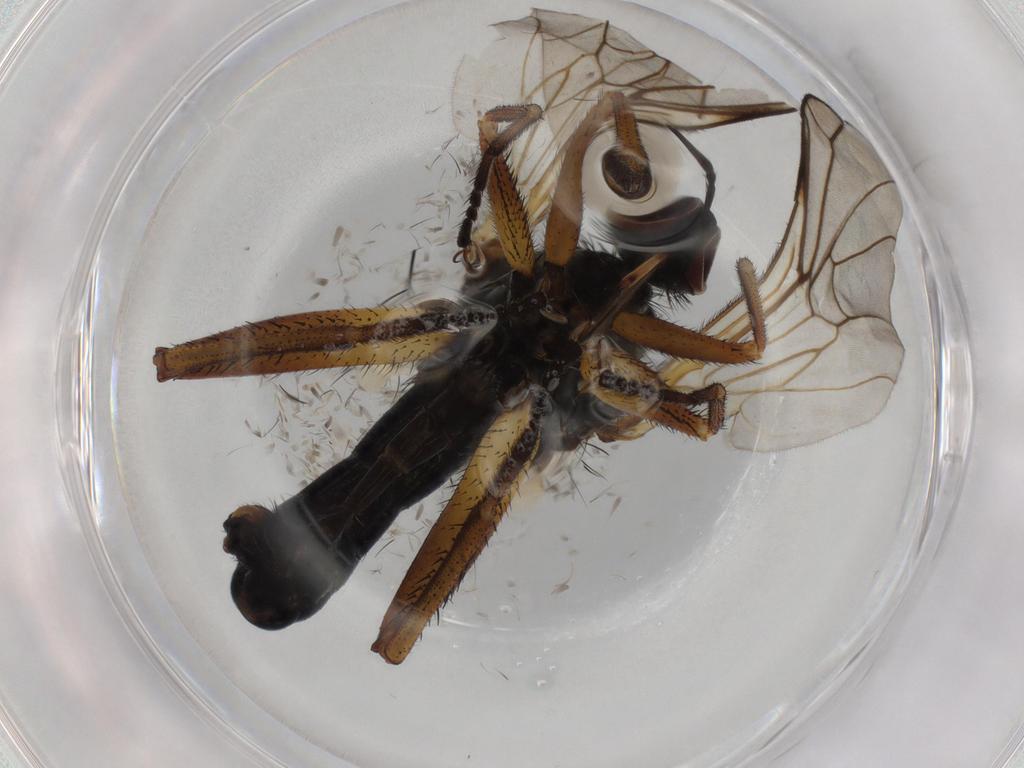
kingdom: Animalia
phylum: Arthropoda
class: Insecta
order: Diptera
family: Empididae
